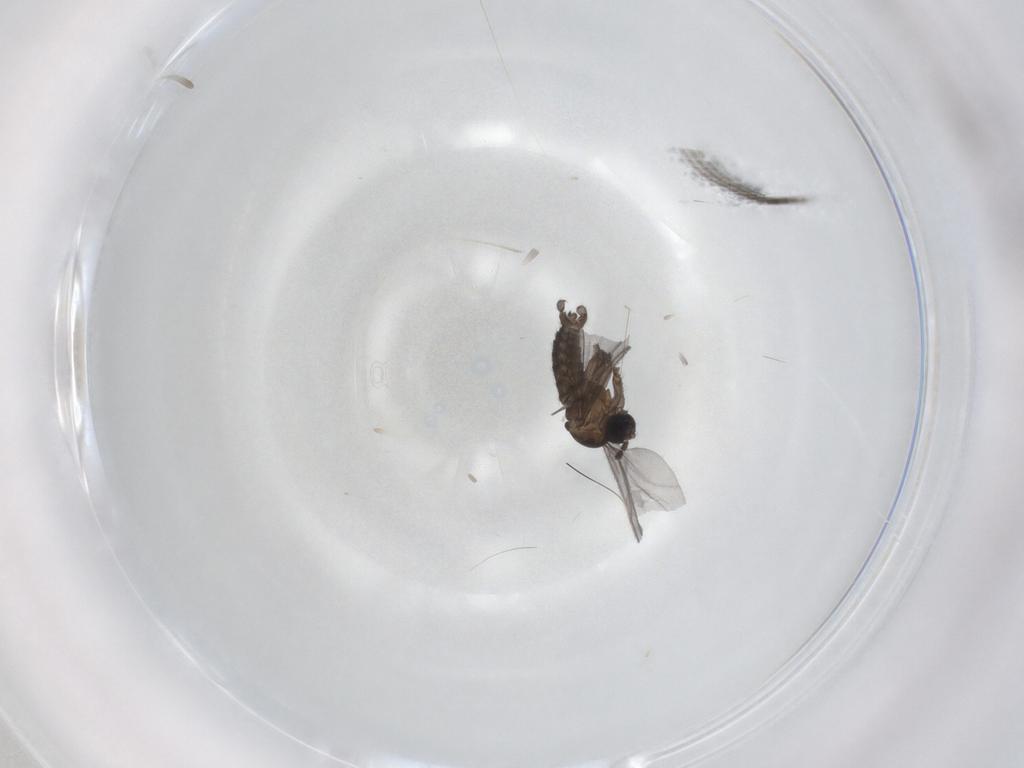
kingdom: Animalia
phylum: Arthropoda
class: Insecta
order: Diptera
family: Sciaridae
